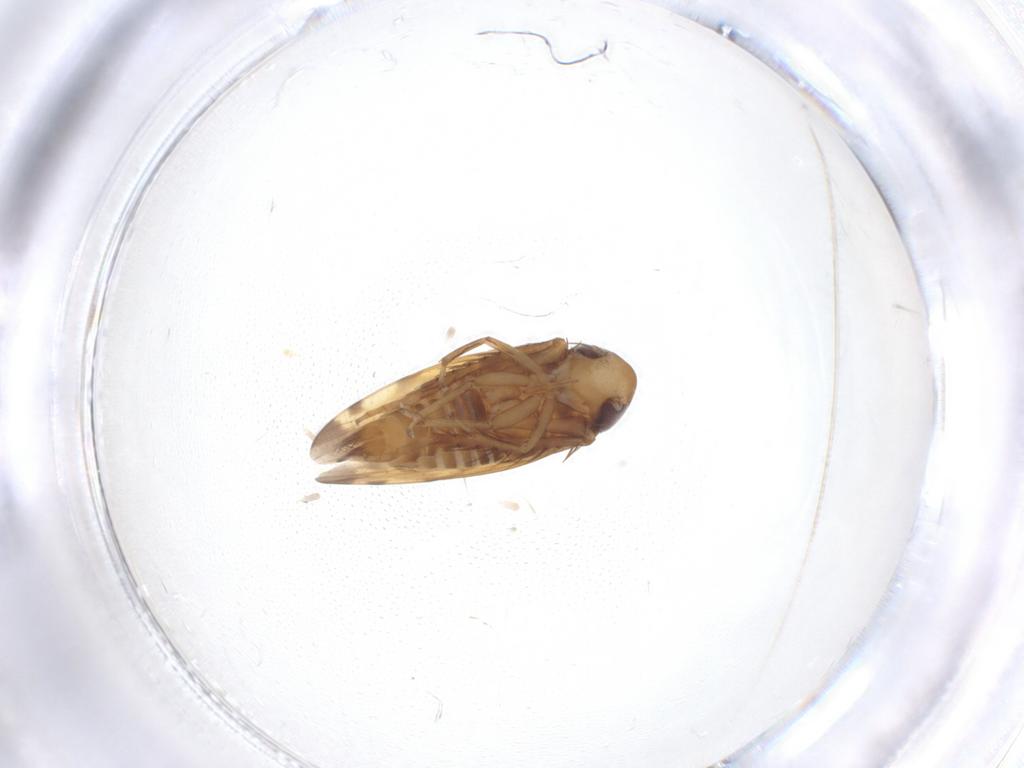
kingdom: Animalia
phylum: Arthropoda
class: Insecta
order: Hemiptera
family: Cicadellidae
